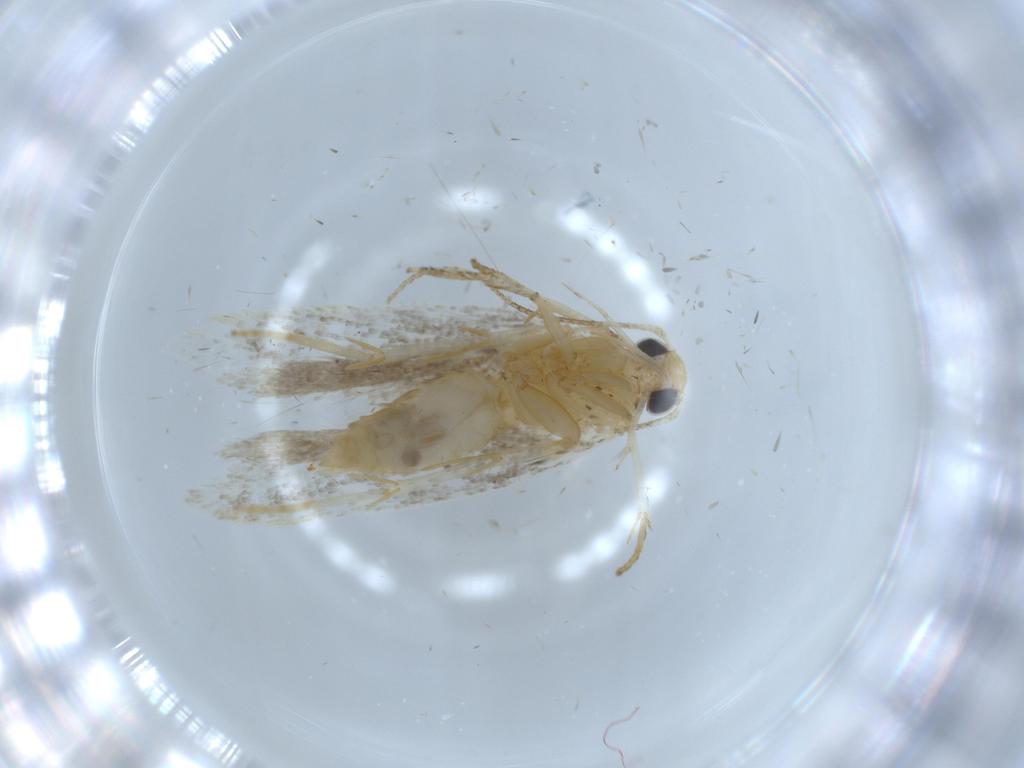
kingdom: Animalia
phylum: Arthropoda
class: Insecta
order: Lepidoptera
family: Autostichidae
